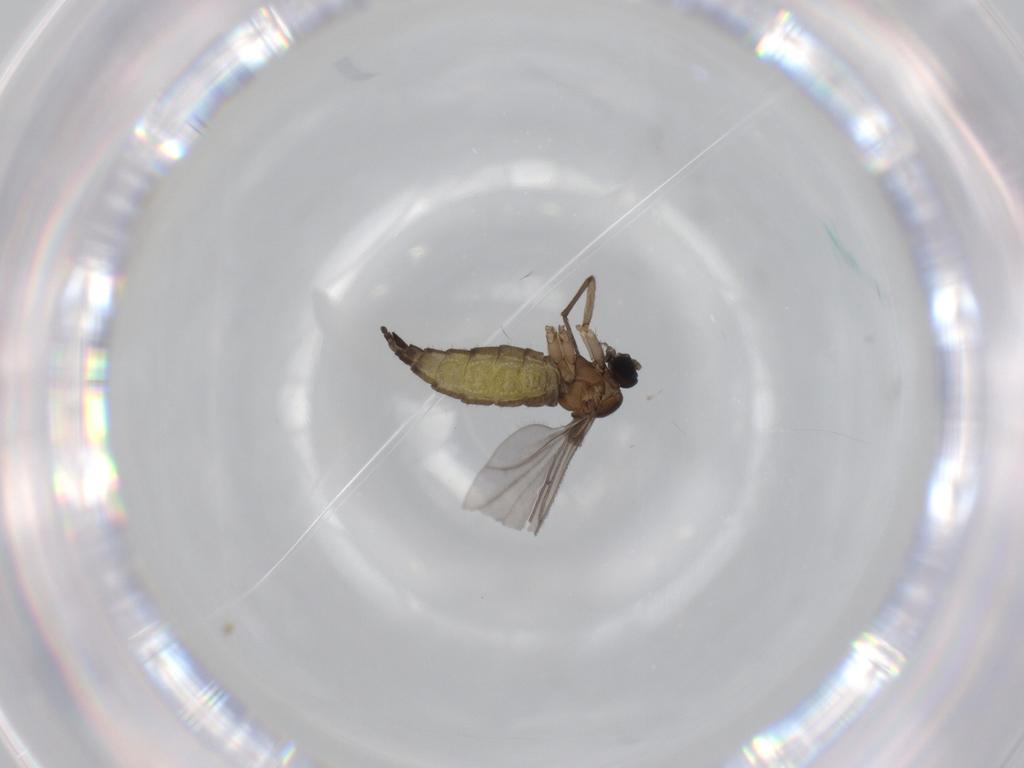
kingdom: Animalia
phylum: Arthropoda
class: Insecta
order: Diptera
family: Sciaridae
